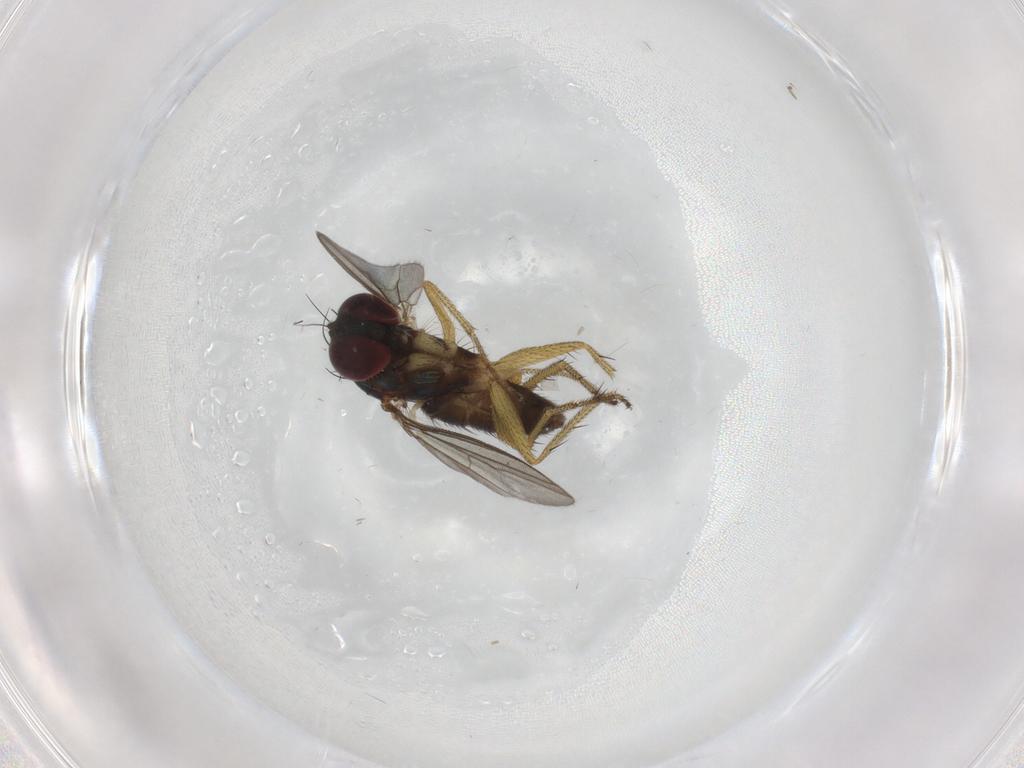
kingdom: Animalia
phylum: Arthropoda
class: Insecta
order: Diptera
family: Dolichopodidae
